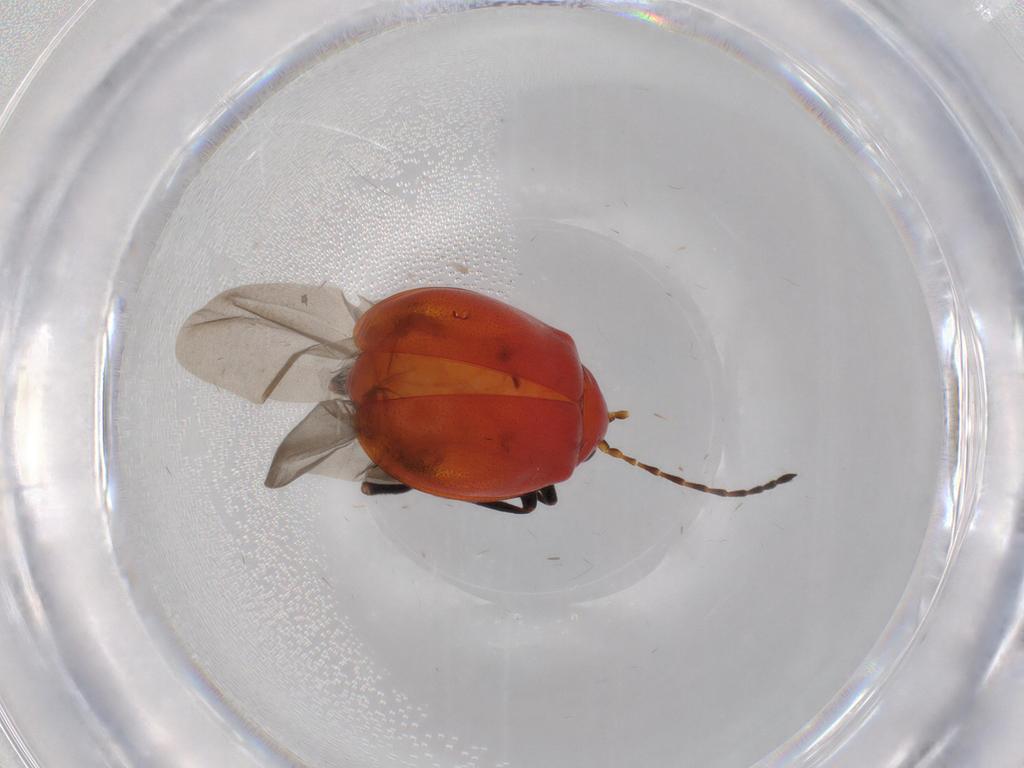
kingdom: Animalia
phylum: Arthropoda
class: Insecta
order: Coleoptera
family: Chrysomelidae
